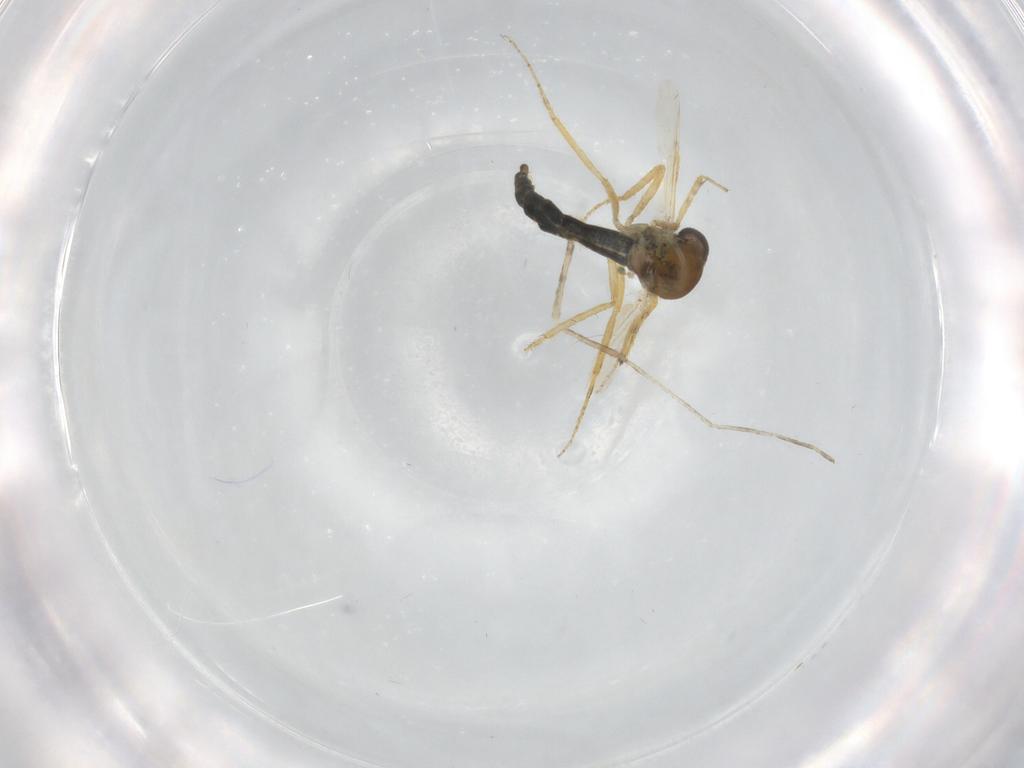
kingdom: Animalia
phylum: Arthropoda
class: Insecta
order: Diptera
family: Ceratopogonidae
